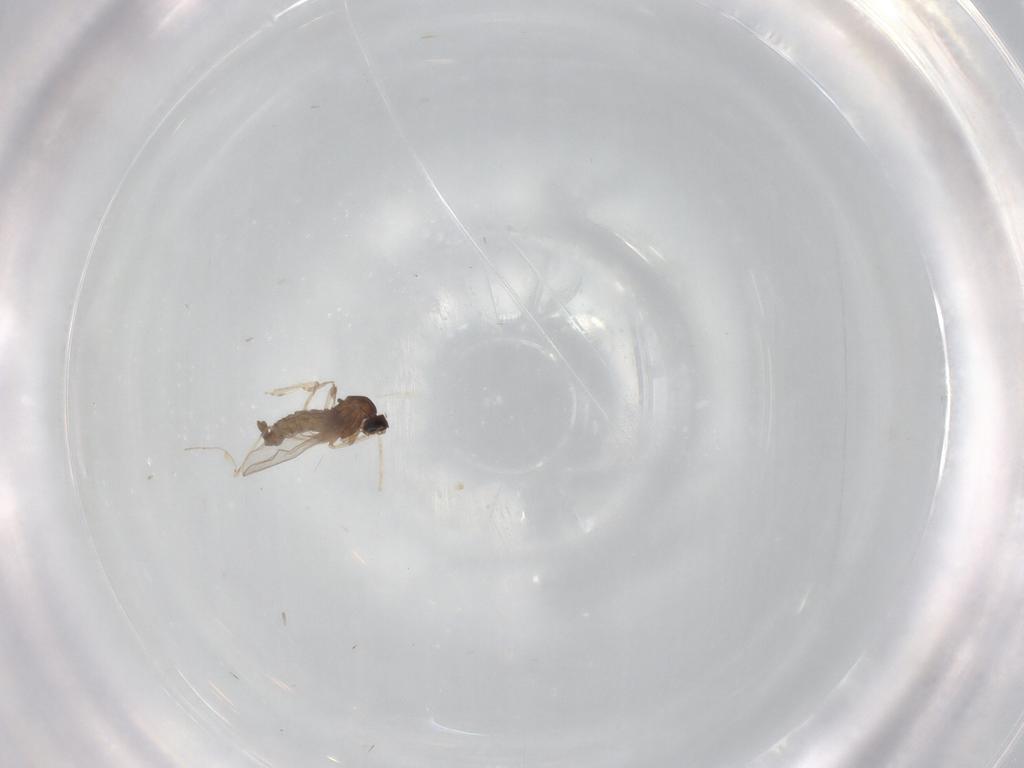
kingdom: Animalia
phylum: Arthropoda
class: Insecta
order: Diptera
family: Cecidomyiidae
